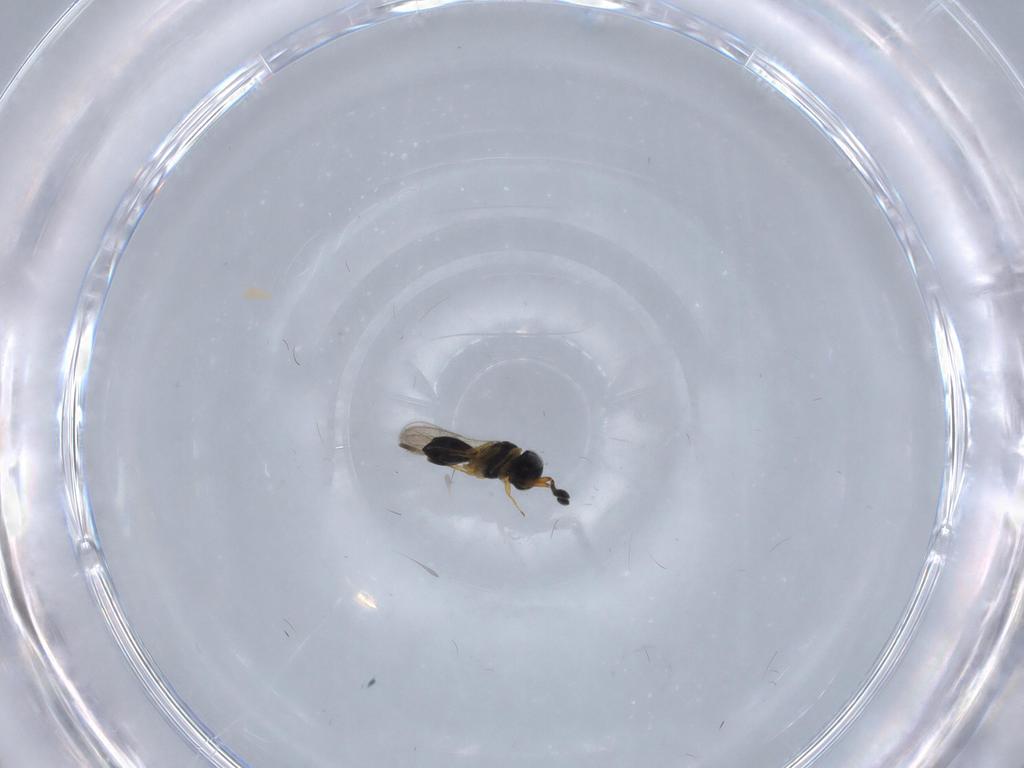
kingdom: Animalia
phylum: Arthropoda
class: Insecta
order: Hymenoptera
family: Scelionidae
